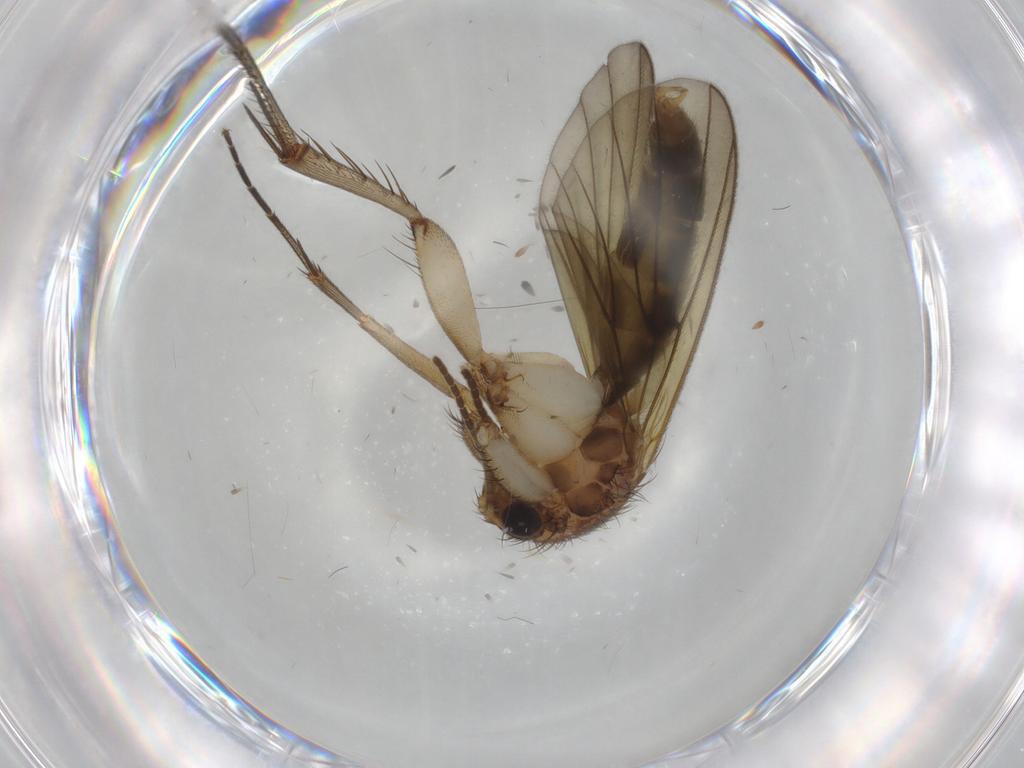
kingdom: Animalia
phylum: Arthropoda
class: Insecta
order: Diptera
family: Mycetophilidae
